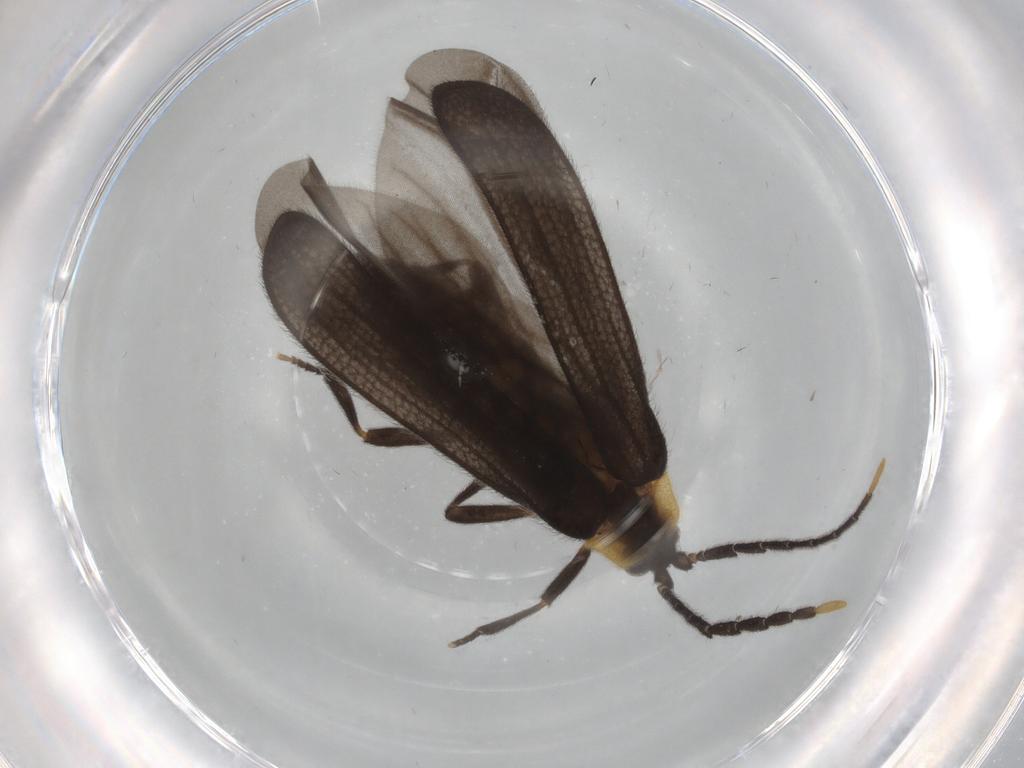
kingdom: Animalia
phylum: Arthropoda
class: Insecta
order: Coleoptera
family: Lycidae
